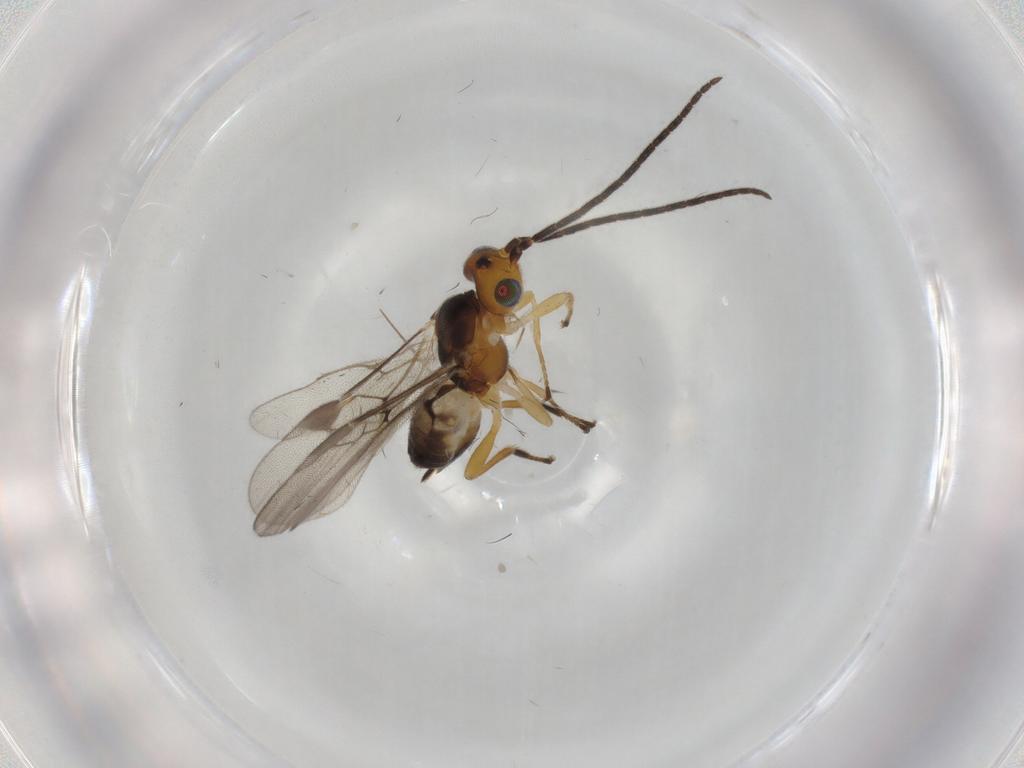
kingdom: Animalia
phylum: Arthropoda
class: Insecta
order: Hymenoptera
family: Braconidae
